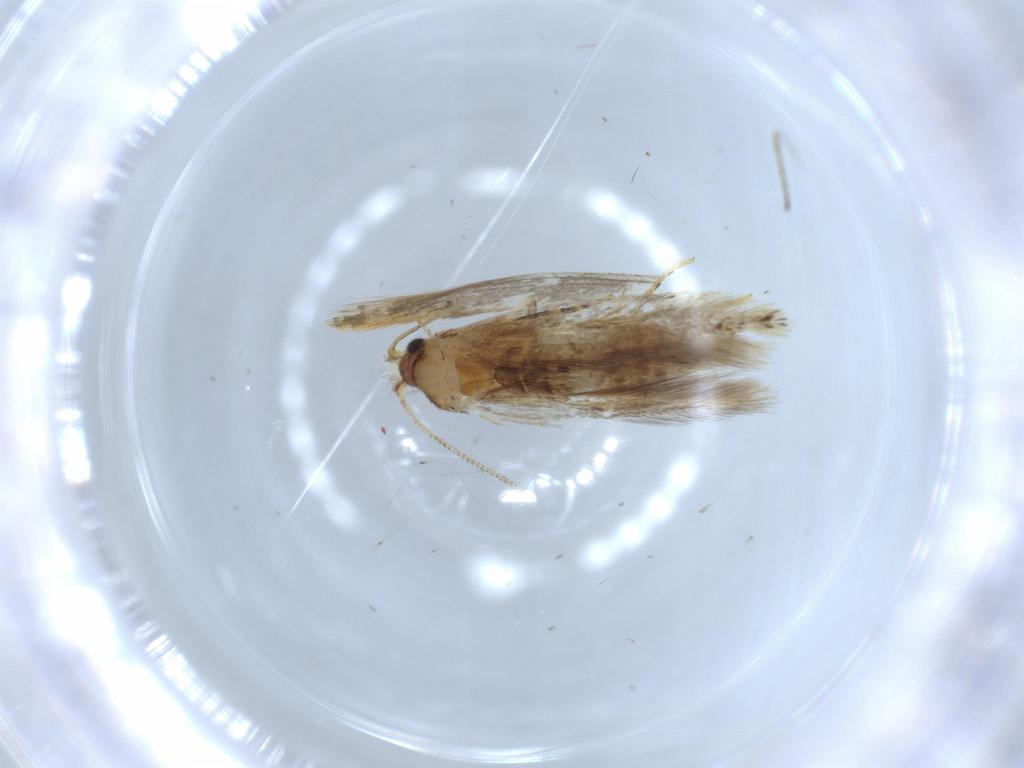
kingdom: Animalia
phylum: Arthropoda
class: Insecta
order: Lepidoptera
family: Tineidae
